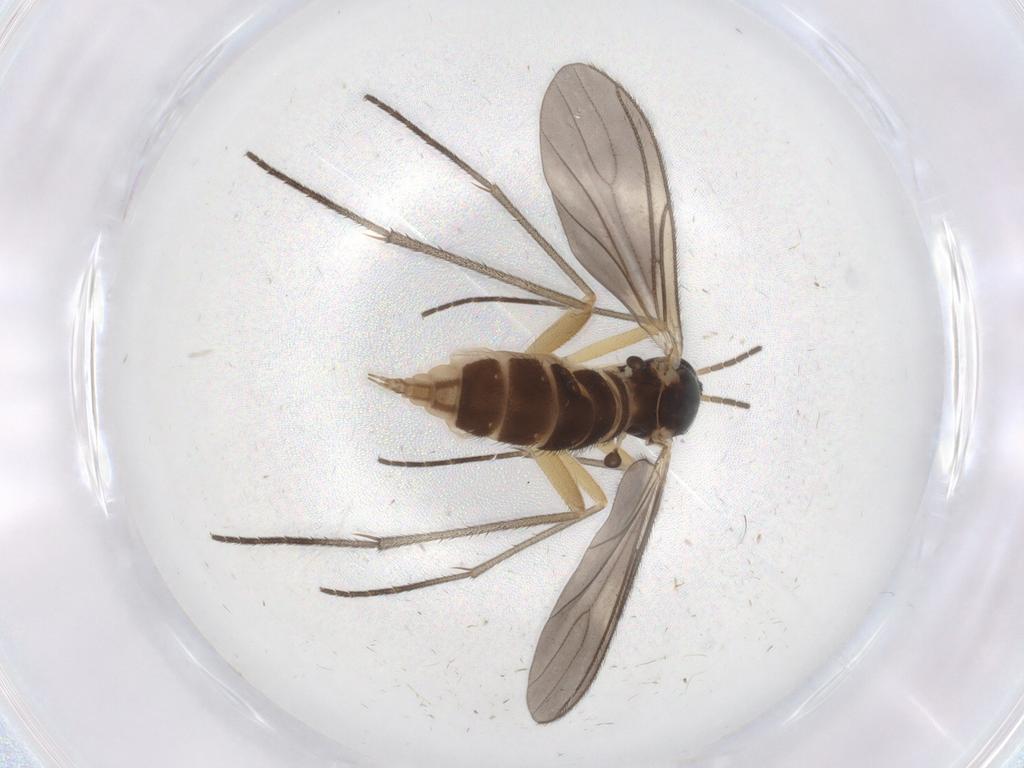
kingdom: Animalia
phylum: Arthropoda
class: Insecta
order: Diptera
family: Sciaridae
